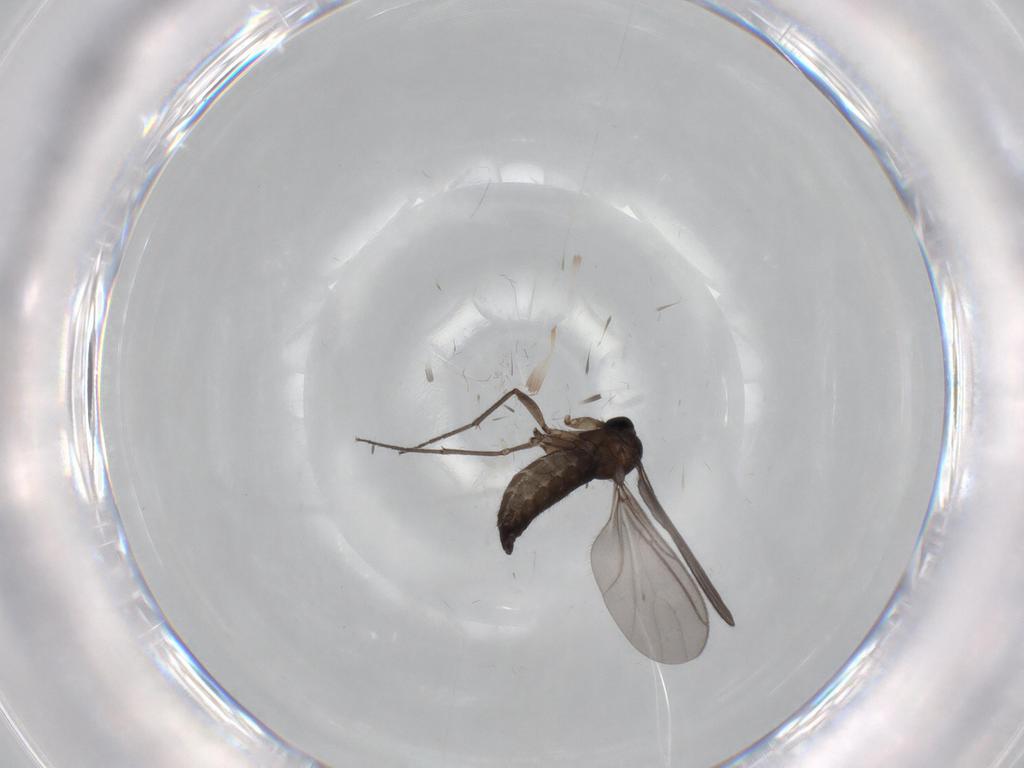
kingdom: Animalia
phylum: Arthropoda
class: Insecta
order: Diptera
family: Sciaridae
